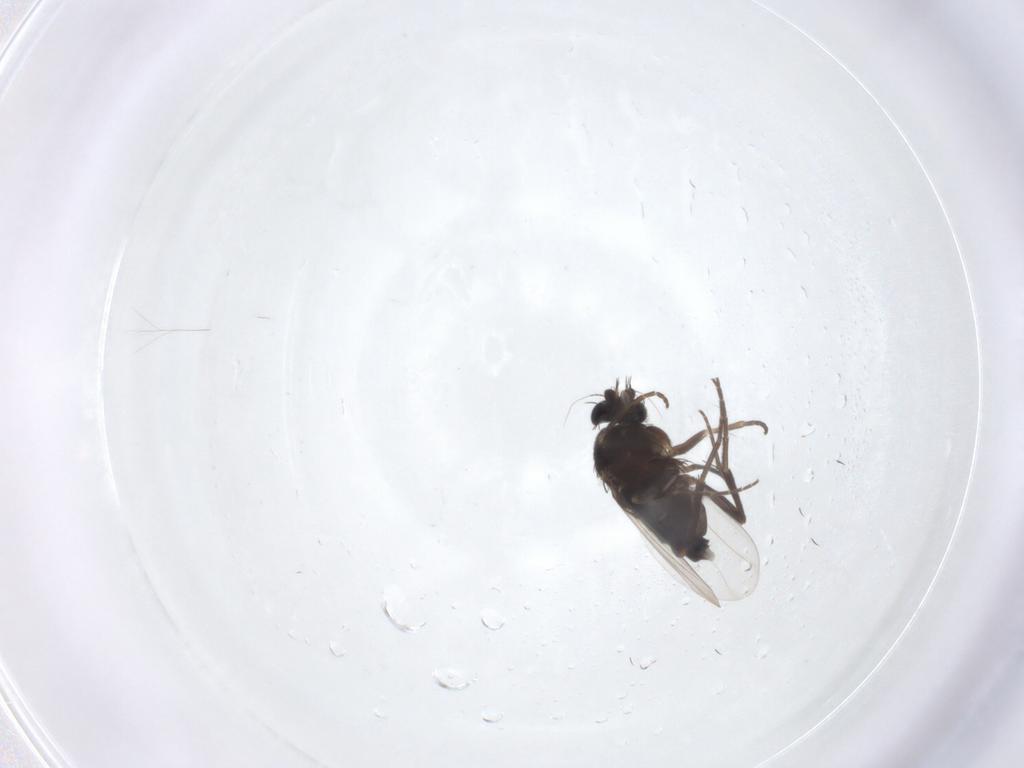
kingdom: Animalia
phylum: Arthropoda
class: Insecta
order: Diptera
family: Phoridae
